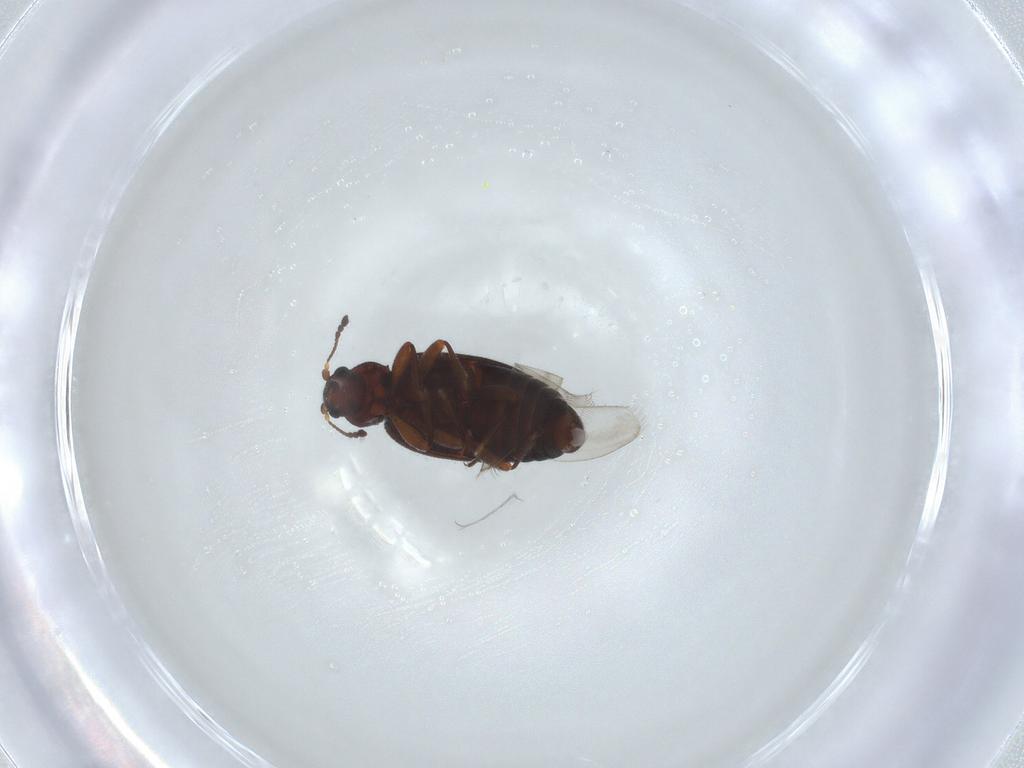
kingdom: Animalia
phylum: Arthropoda
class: Insecta
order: Coleoptera
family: Latridiidae
